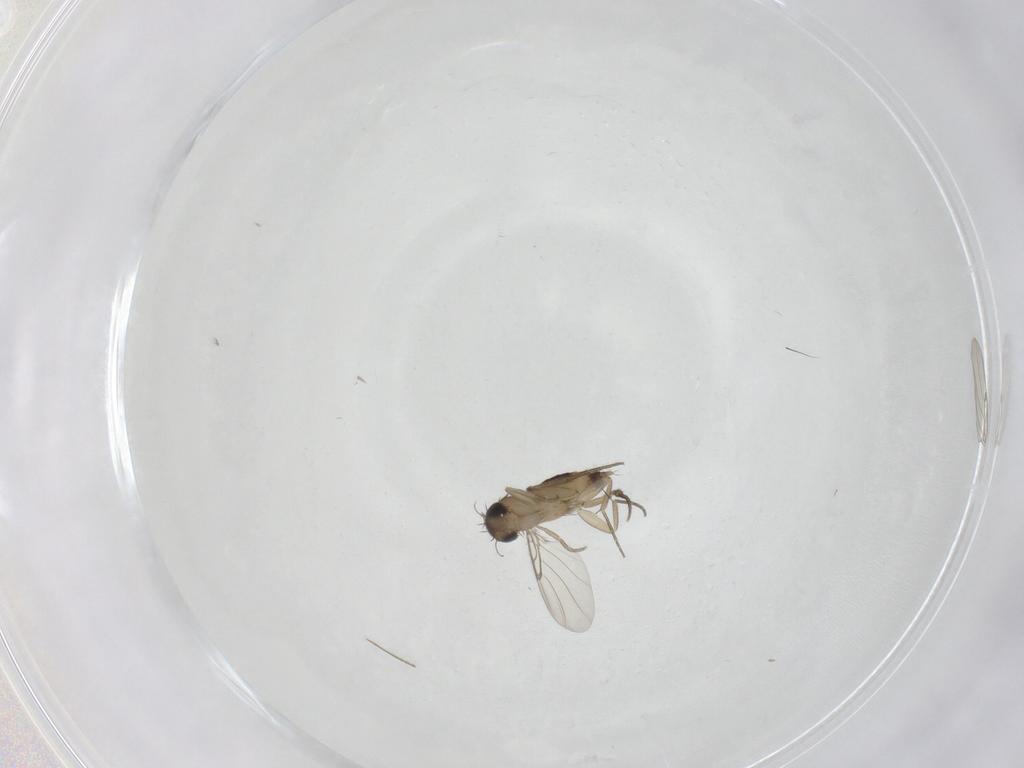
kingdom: Animalia
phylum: Arthropoda
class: Insecta
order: Diptera
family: Phoridae
